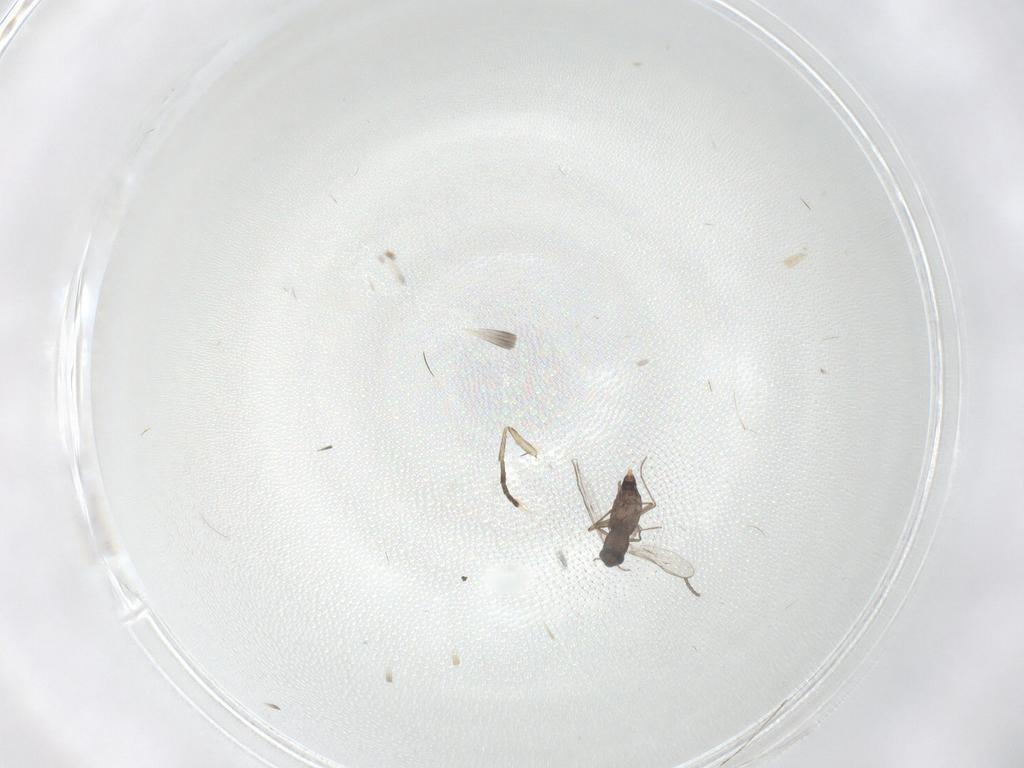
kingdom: Animalia
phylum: Arthropoda
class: Insecta
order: Diptera
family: Chironomidae
